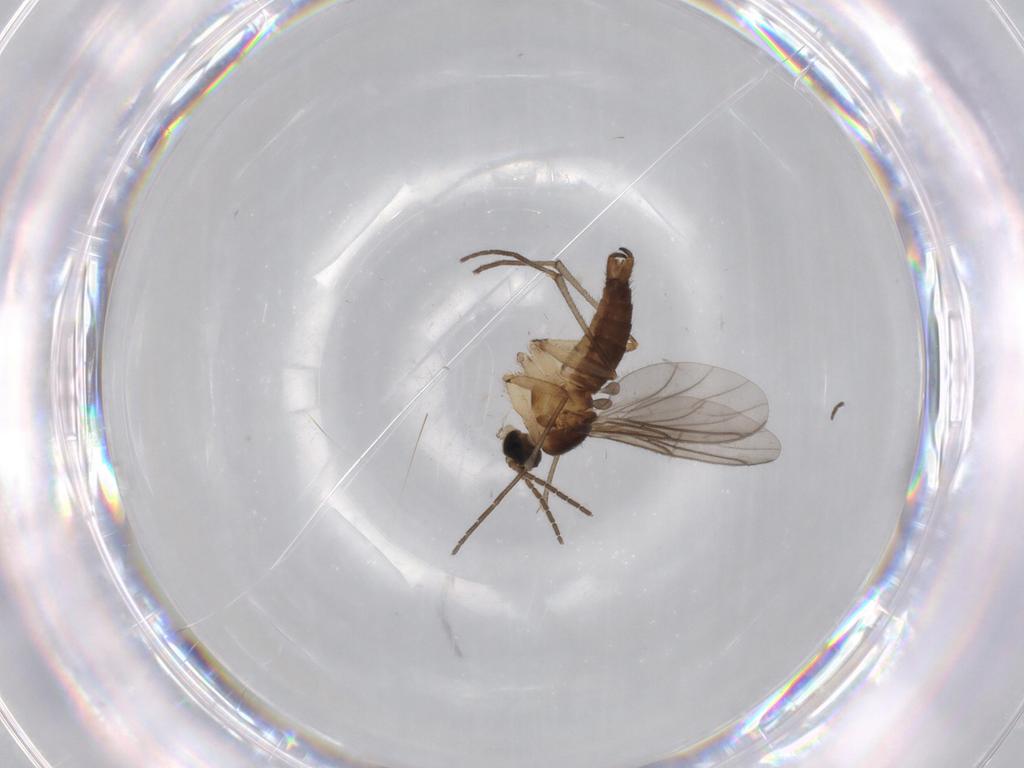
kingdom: Animalia
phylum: Arthropoda
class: Insecta
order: Diptera
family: Sciaridae
